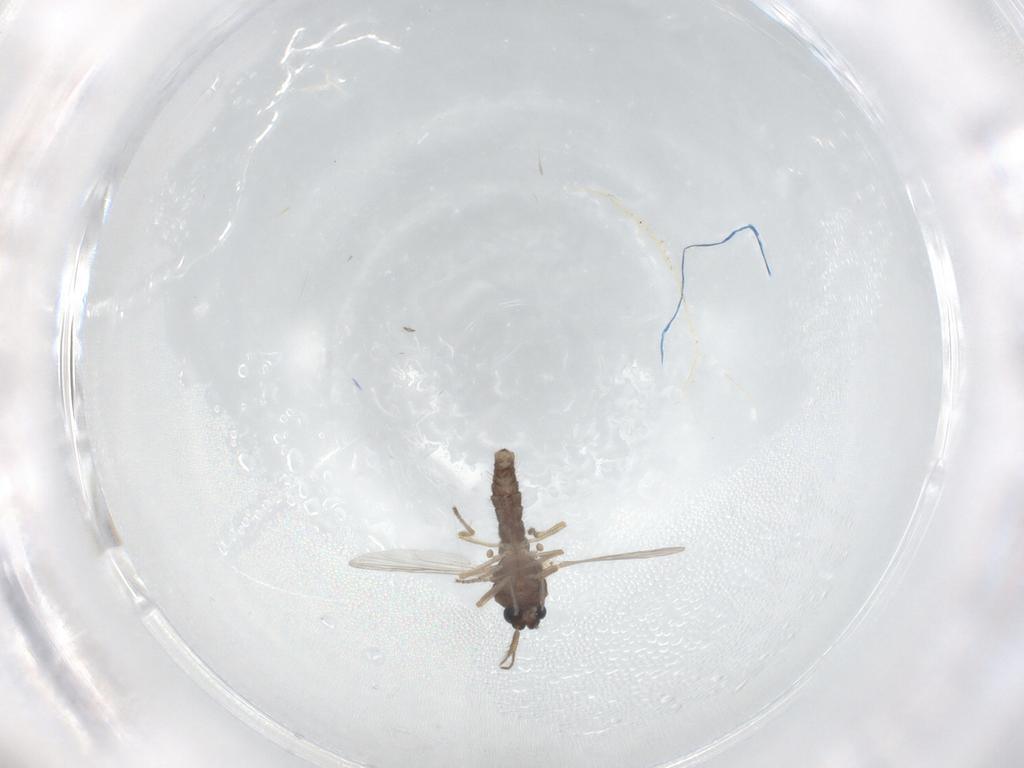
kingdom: Animalia
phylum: Arthropoda
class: Insecta
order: Diptera
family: Ceratopogonidae
